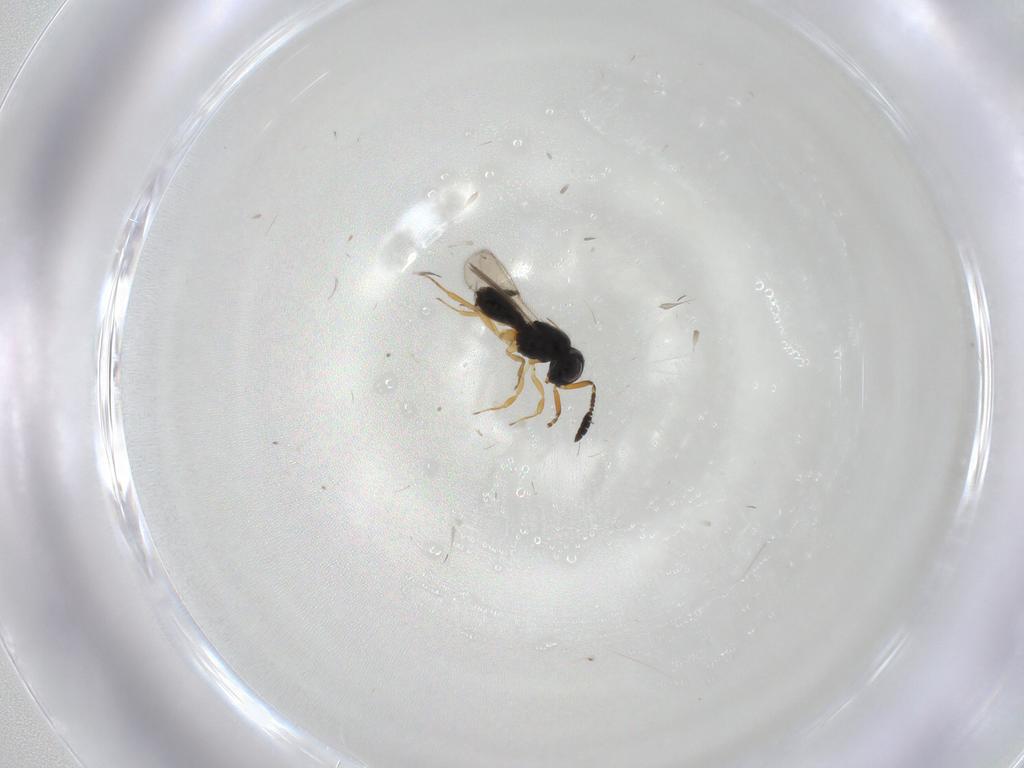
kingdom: Animalia
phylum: Arthropoda
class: Insecta
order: Hymenoptera
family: Scelionidae
